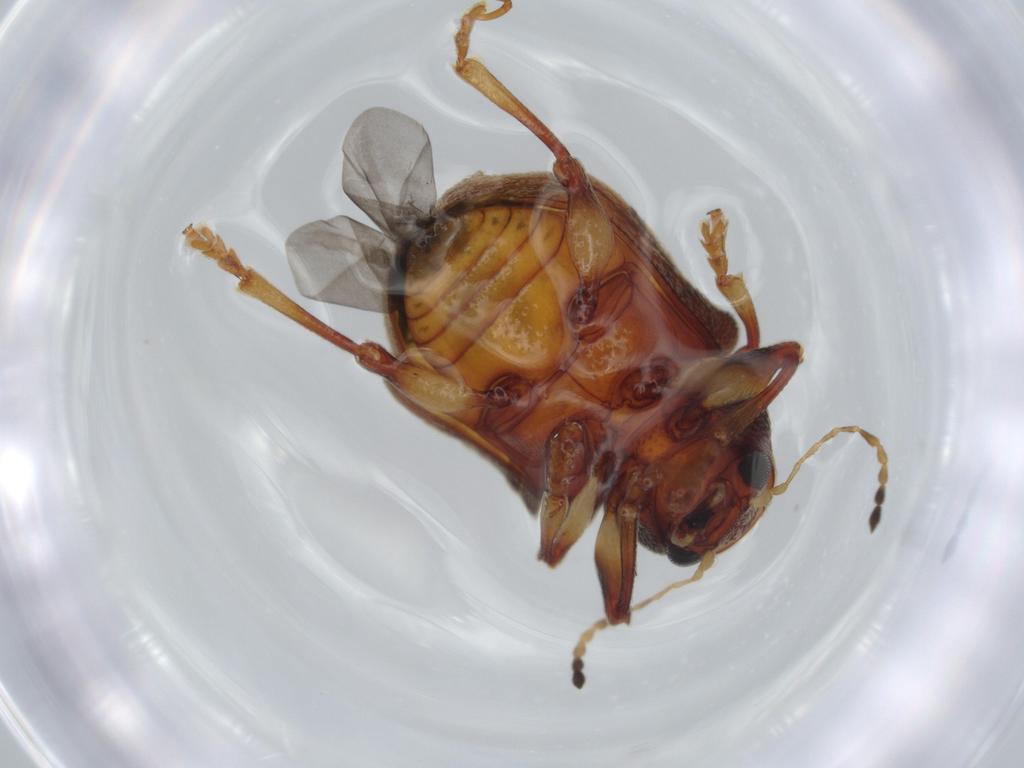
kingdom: Animalia
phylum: Arthropoda
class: Insecta
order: Coleoptera
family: Chrysomelidae
